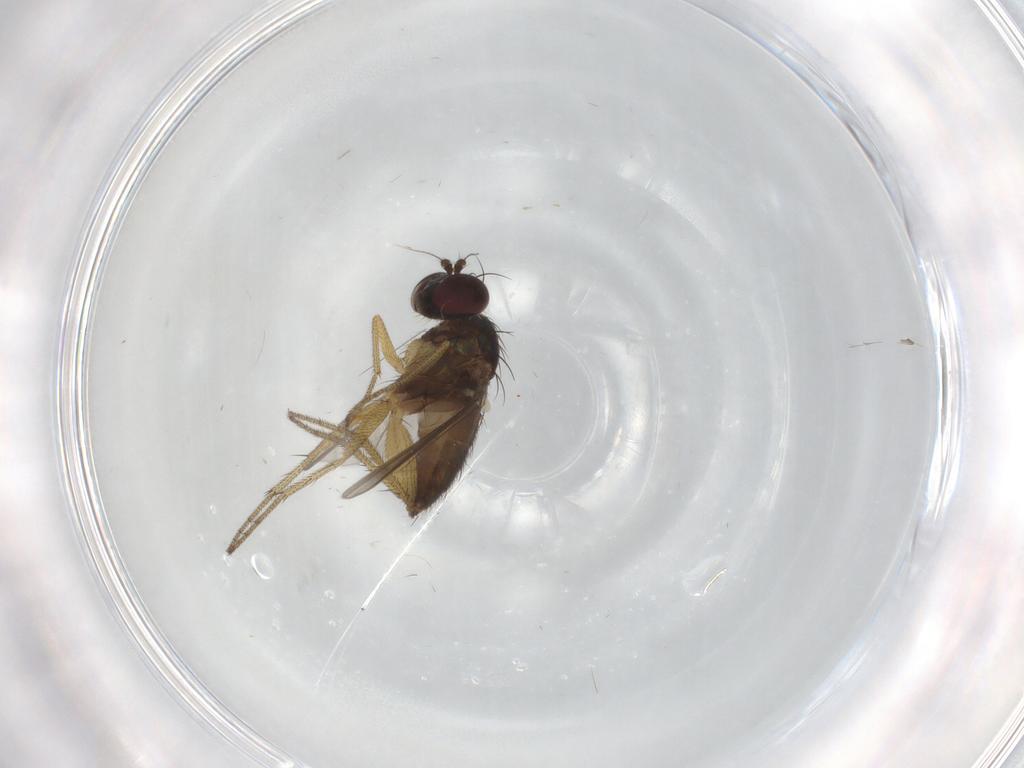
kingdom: Animalia
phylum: Arthropoda
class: Insecta
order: Diptera
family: Dolichopodidae
